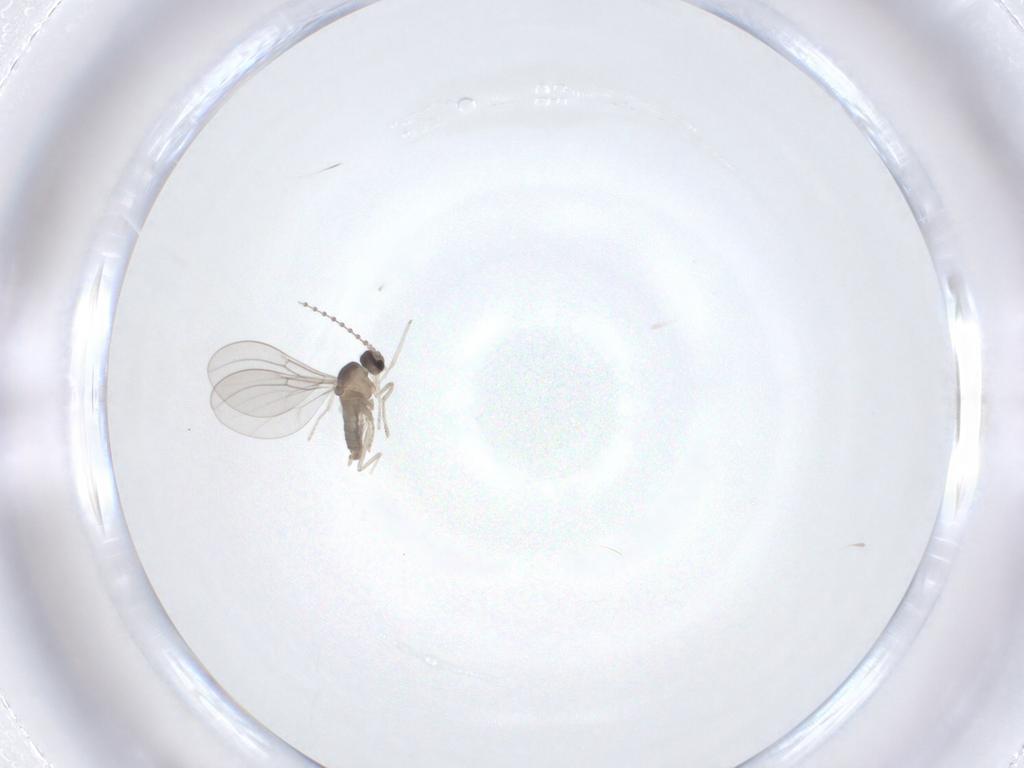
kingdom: Animalia
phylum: Arthropoda
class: Insecta
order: Diptera
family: Cecidomyiidae
